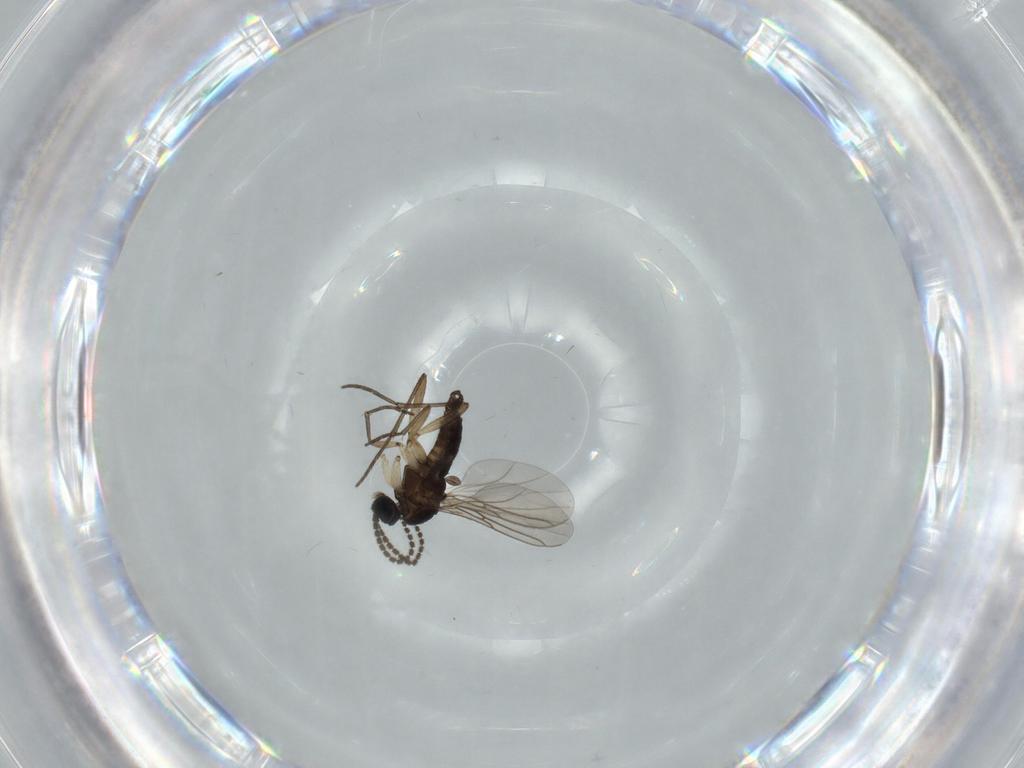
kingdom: Animalia
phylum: Arthropoda
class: Insecta
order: Diptera
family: Sciaridae
